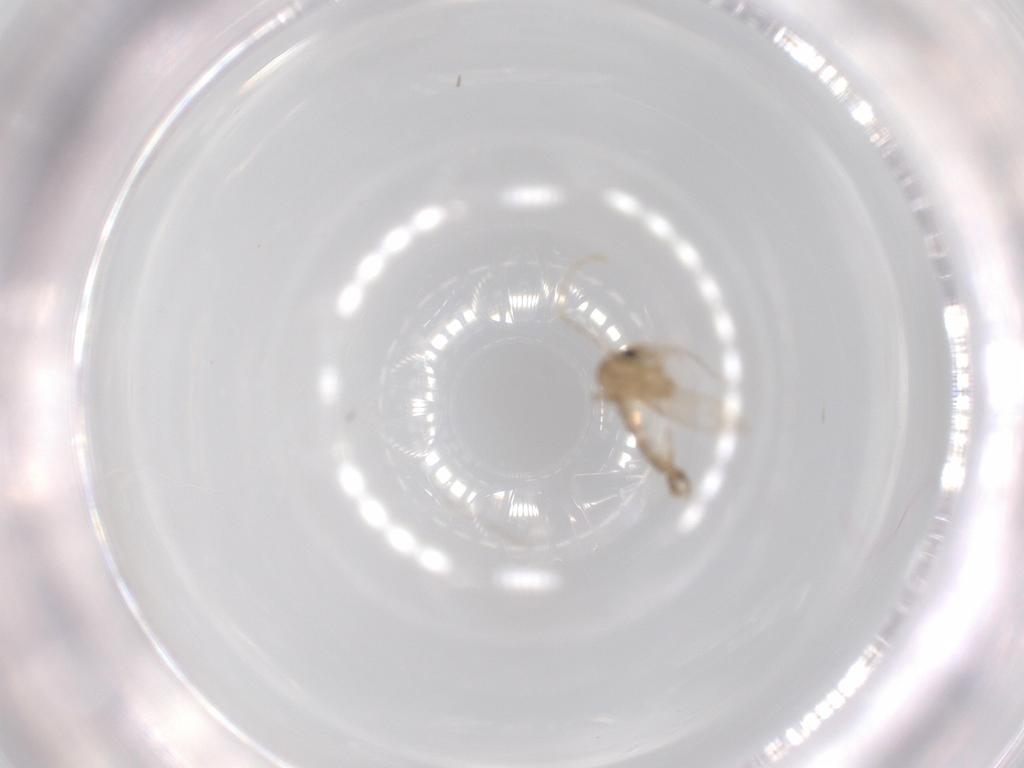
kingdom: Animalia
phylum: Arthropoda
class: Insecta
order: Diptera
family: Psychodidae
